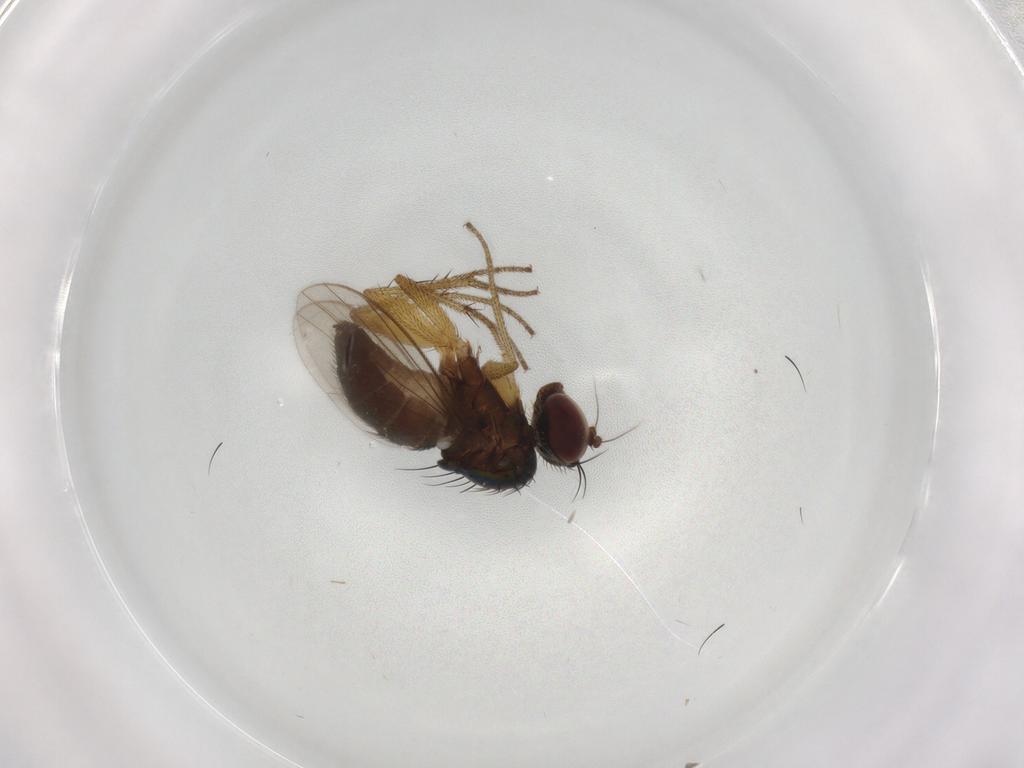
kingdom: Animalia
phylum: Arthropoda
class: Insecta
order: Diptera
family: Dolichopodidae
